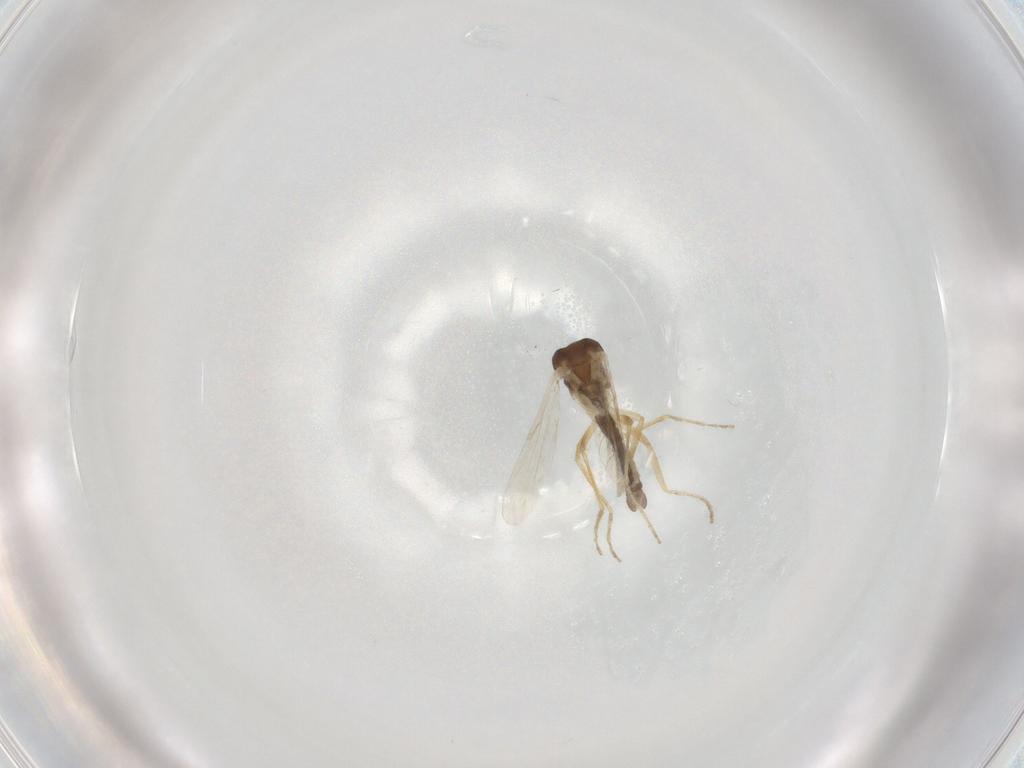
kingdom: Animalia
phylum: Arthropoda
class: Insecta
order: Diptera
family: Ceratopogonidae
